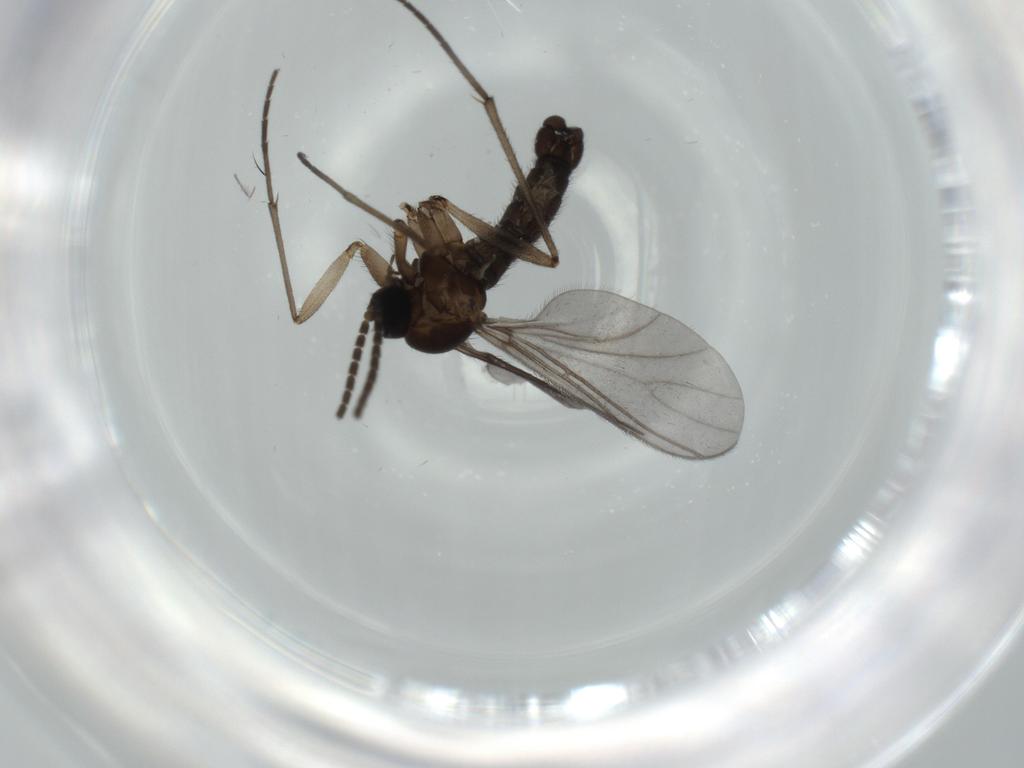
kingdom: Animalia
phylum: Arthropoda
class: Insecta
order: Diptera
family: Sciaridae
